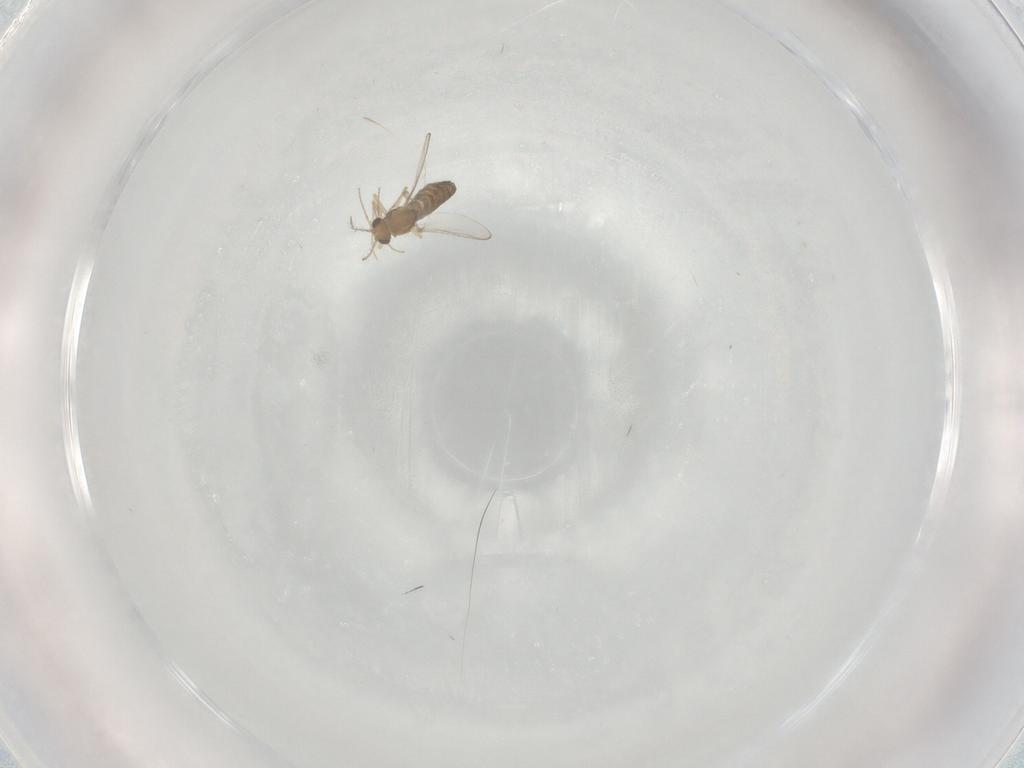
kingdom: Animalia
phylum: Arthropoda
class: Insecta
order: Diptera
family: Chironomidae
